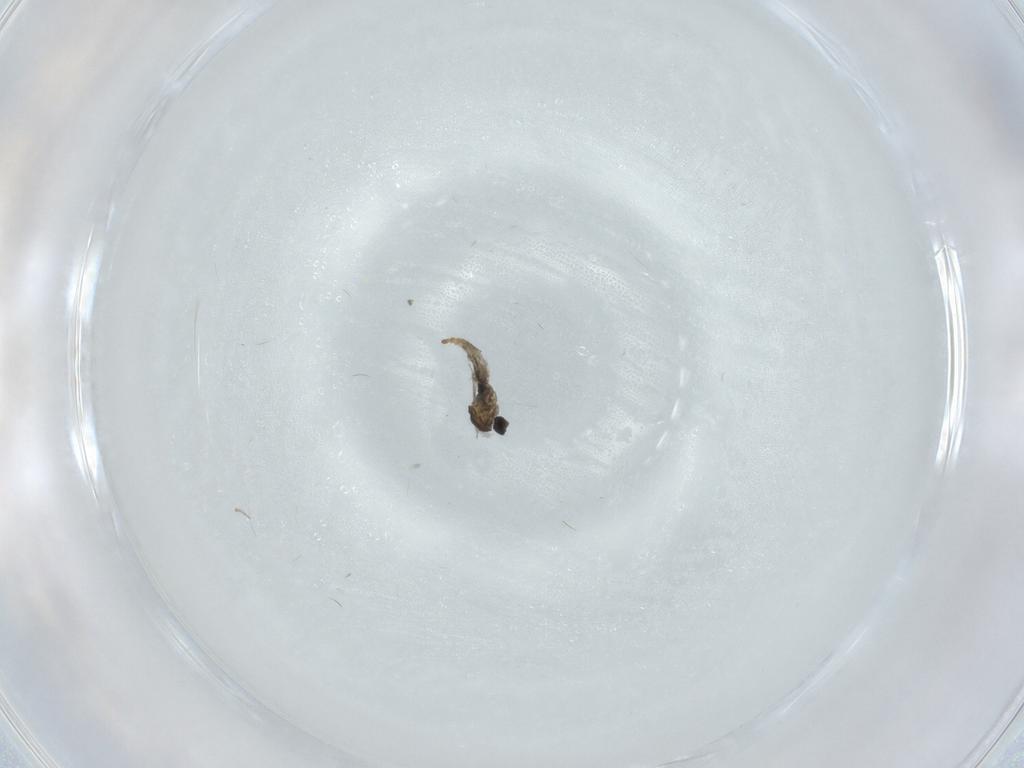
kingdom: Animalia
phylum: Arthropoda
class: Insecta
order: Diptera
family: Cecidomyiidae
